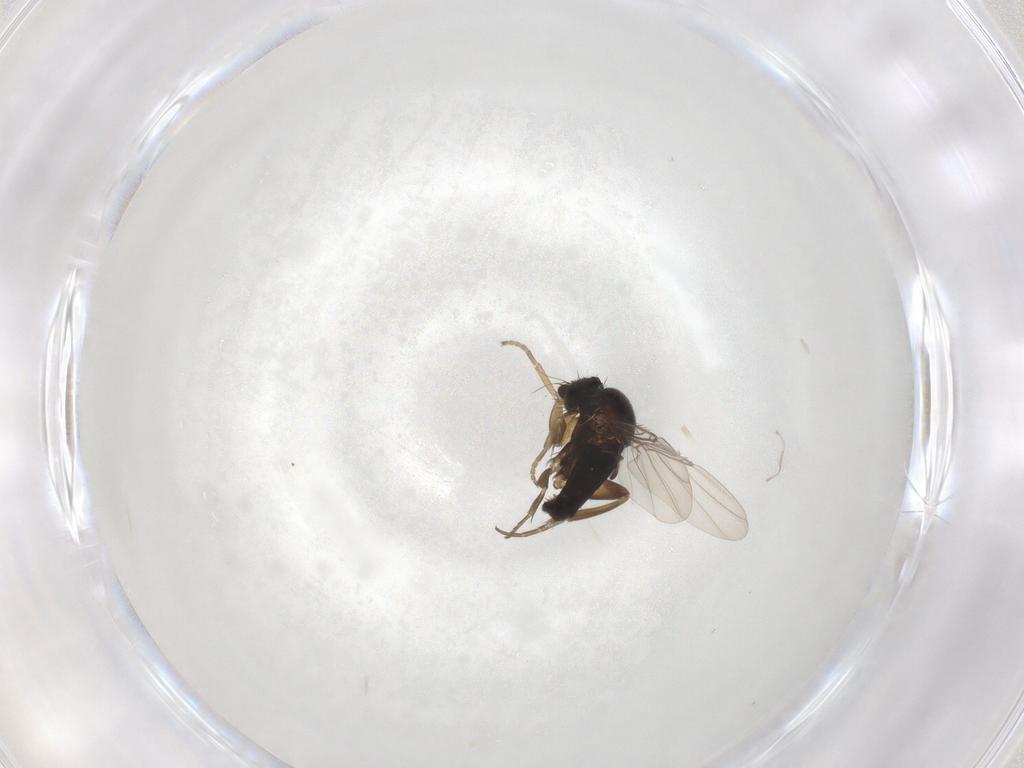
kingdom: Animalia
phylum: Arthropoda
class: Insecta
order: Diptera
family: Phoridae
